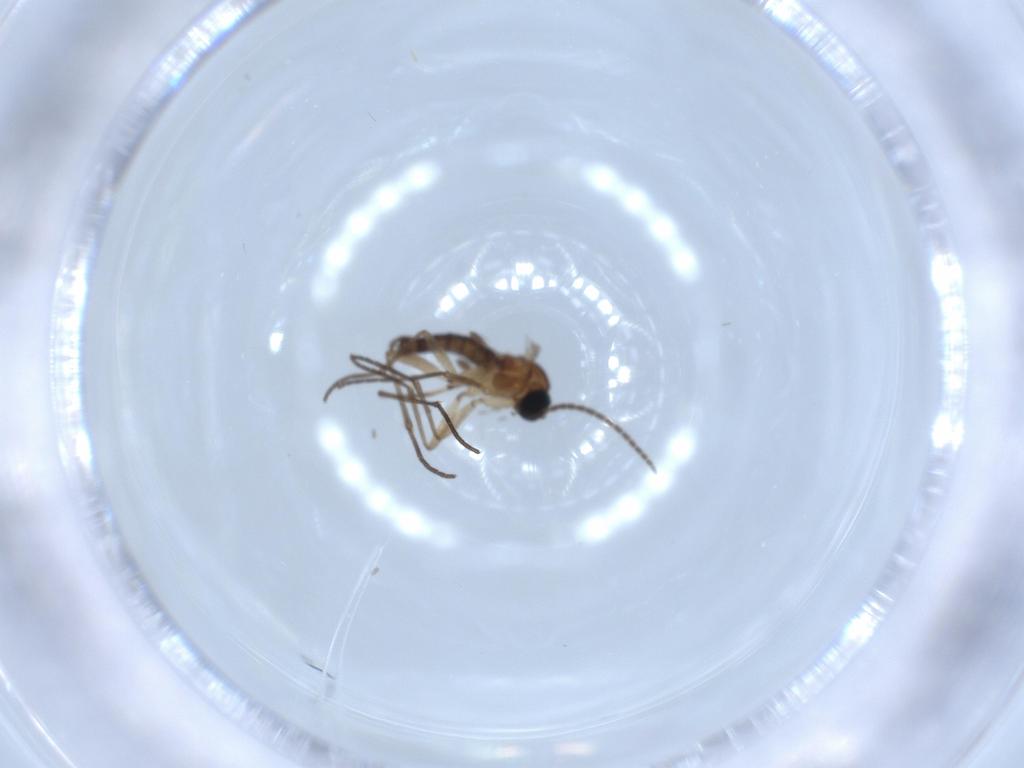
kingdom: Animalia
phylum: Arthropoda
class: Insecta
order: Diptera
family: Sciaridae
